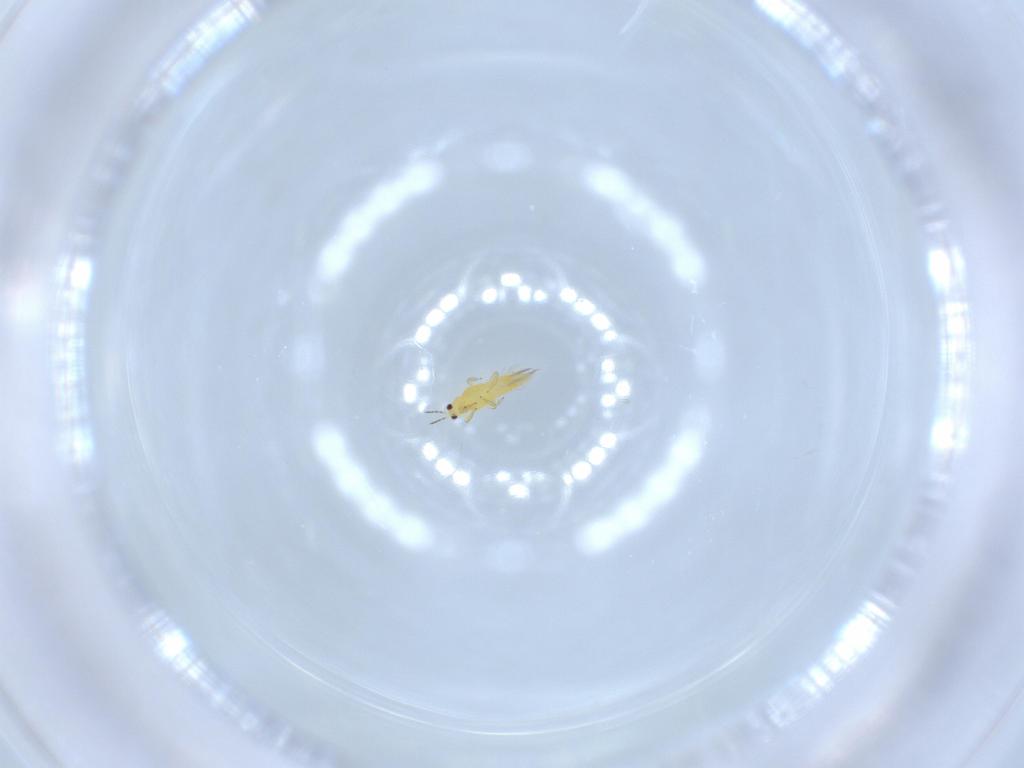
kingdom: Animalia
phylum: Arthropoda
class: Insecta
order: Thysanoptera
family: Thripidae
